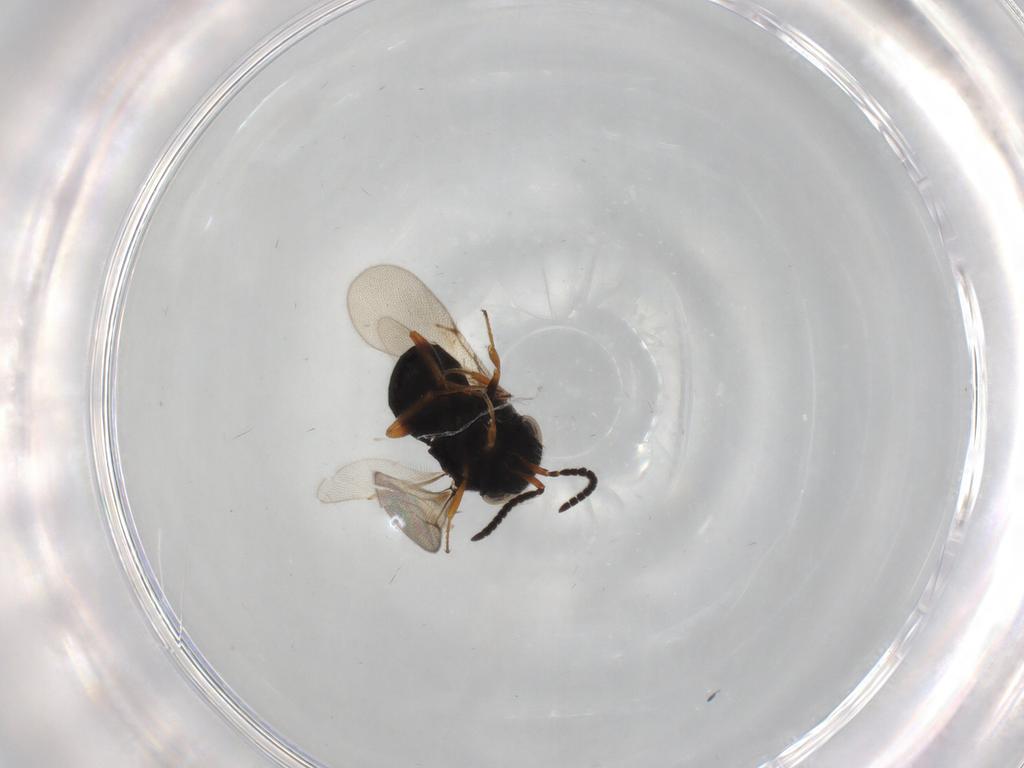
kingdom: Animalia
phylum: Arthropoda
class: Insecta
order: Hymenoptera
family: Scelionidae
